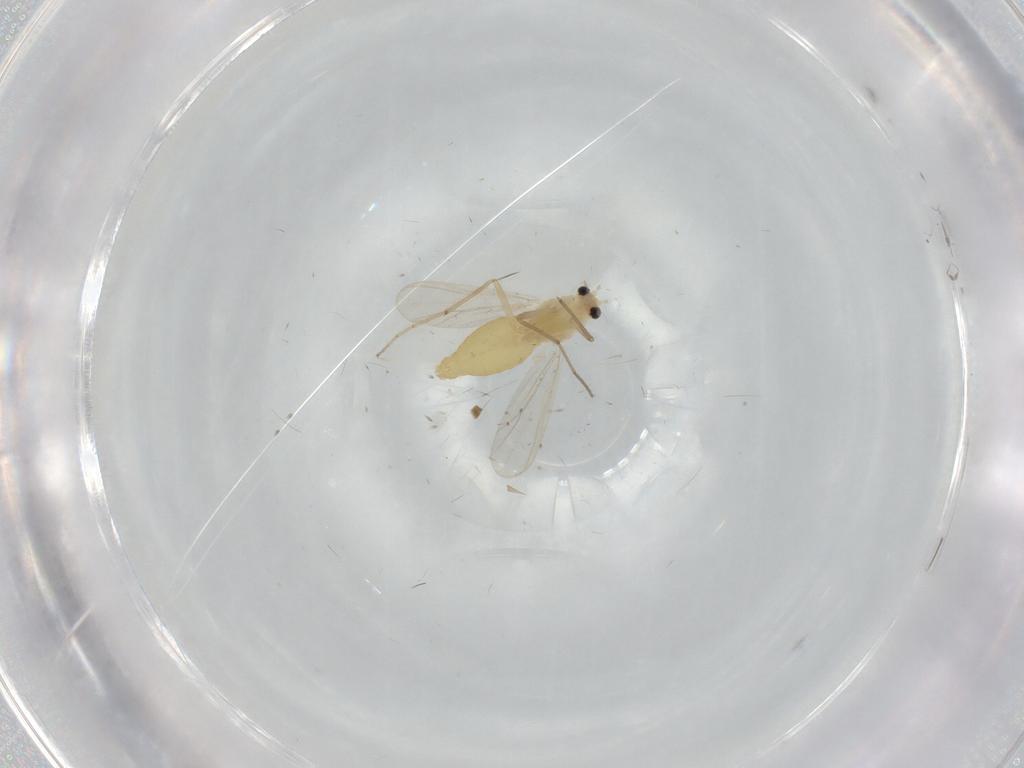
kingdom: Animalia
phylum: Arthropoda
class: Insecta
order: Diptera
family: Chironomidae
